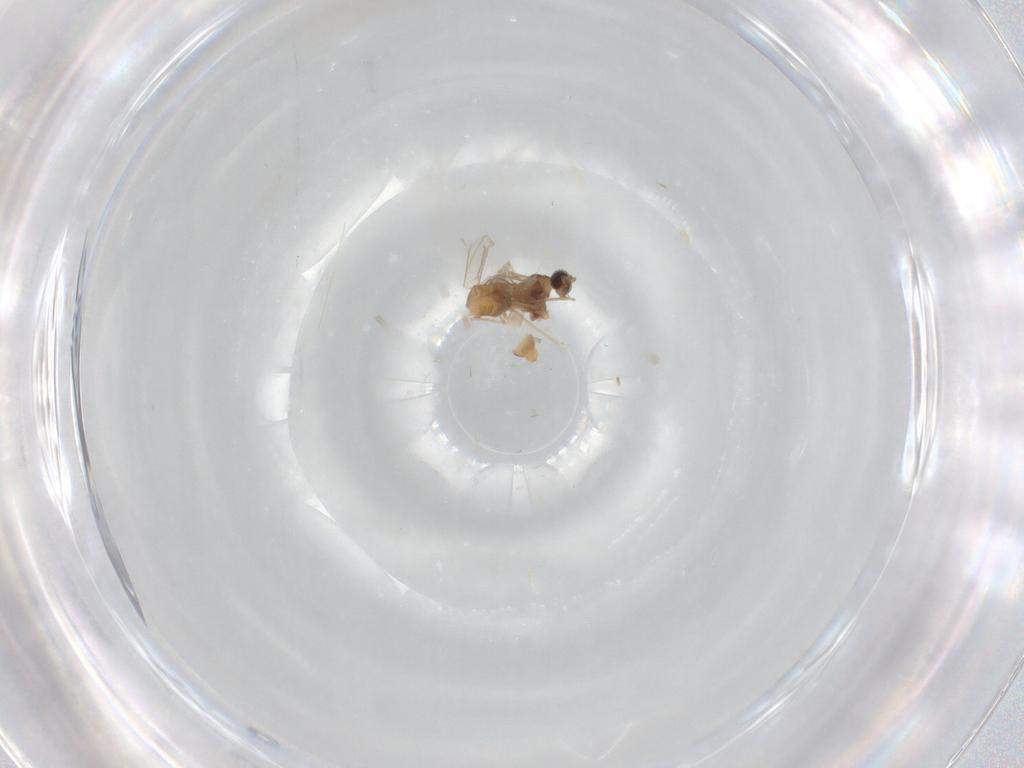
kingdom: Animalia
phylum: Arthropoda
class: Insecta
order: Diptera
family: Cecidomyiidae
